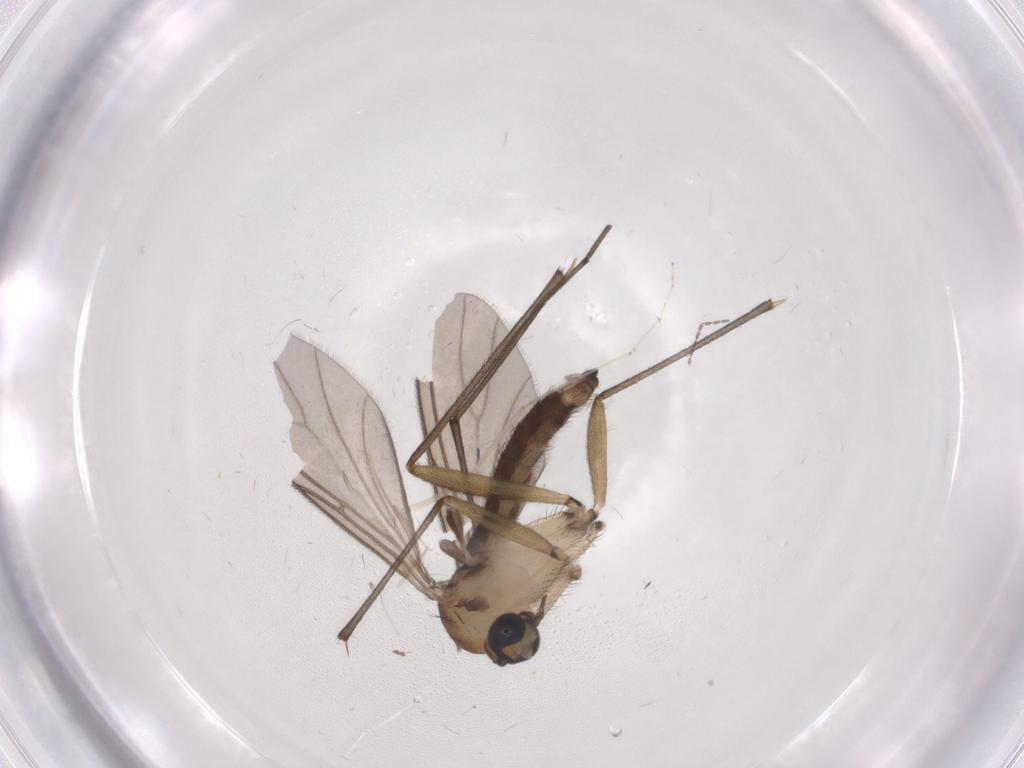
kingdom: Animalia
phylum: Arthropoda
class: Insecta
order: Diptera
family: Sciaridae
